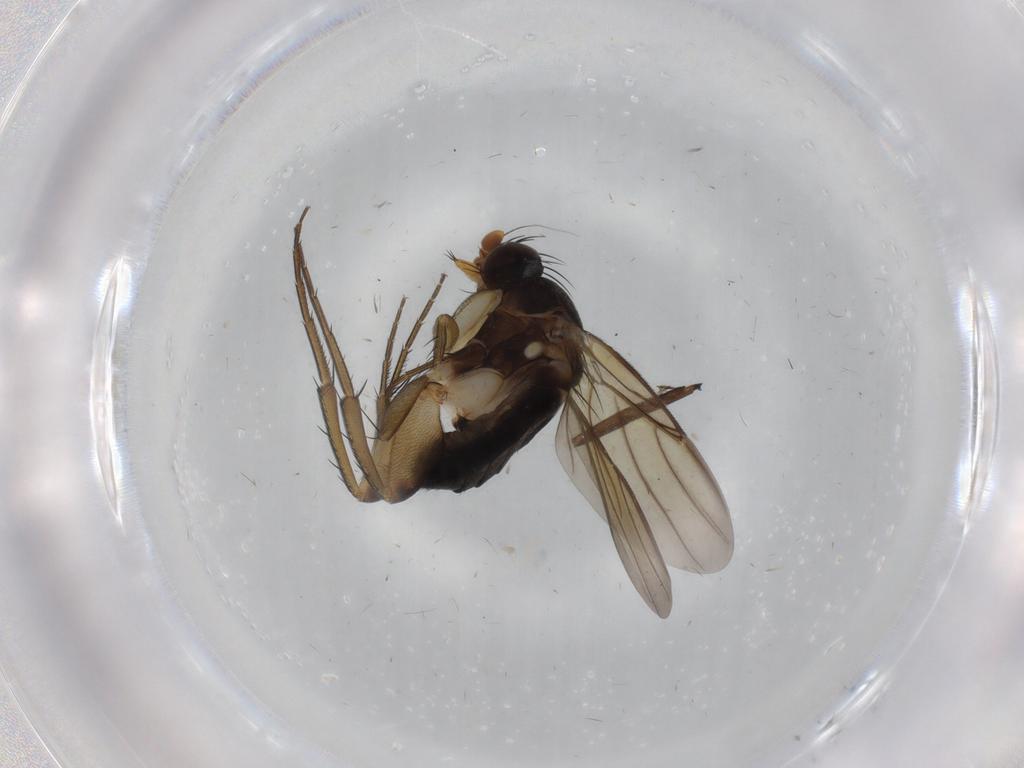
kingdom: Animalia
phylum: Arthropoda
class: Insecta
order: Diptera
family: Phoridae
